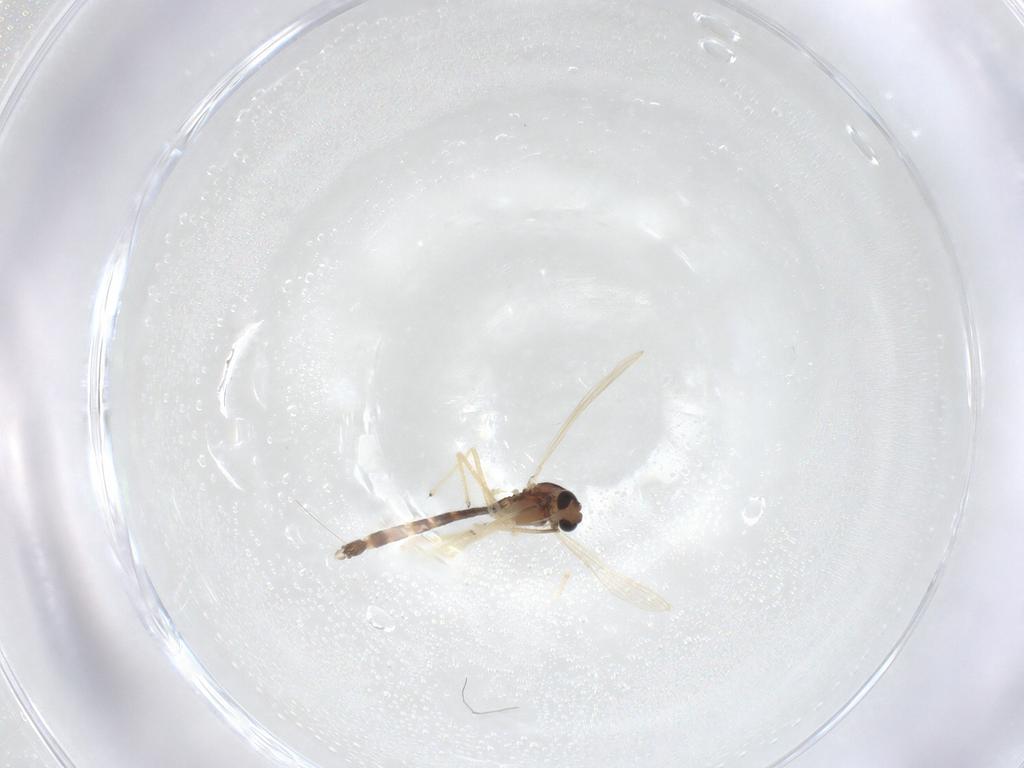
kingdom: Animalia
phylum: Arthropoda
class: Insecta
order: Diptera
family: Chironomidae
